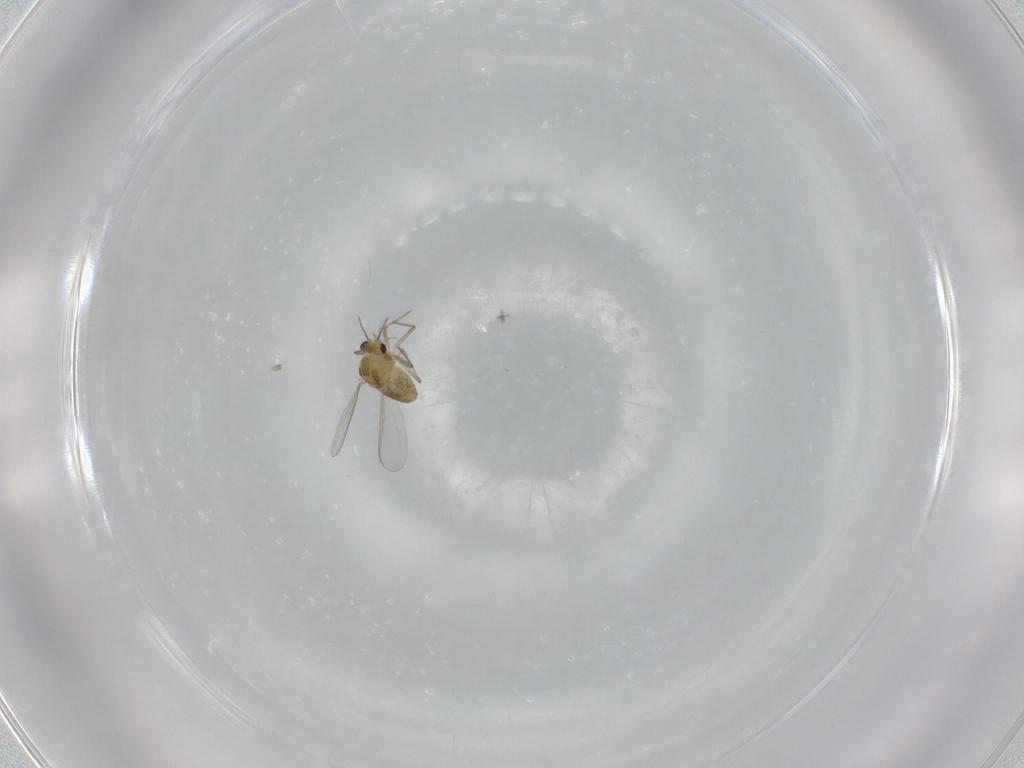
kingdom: Animalia
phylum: Arthropoda
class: Insecta
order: Diptera
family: Chironomidae
